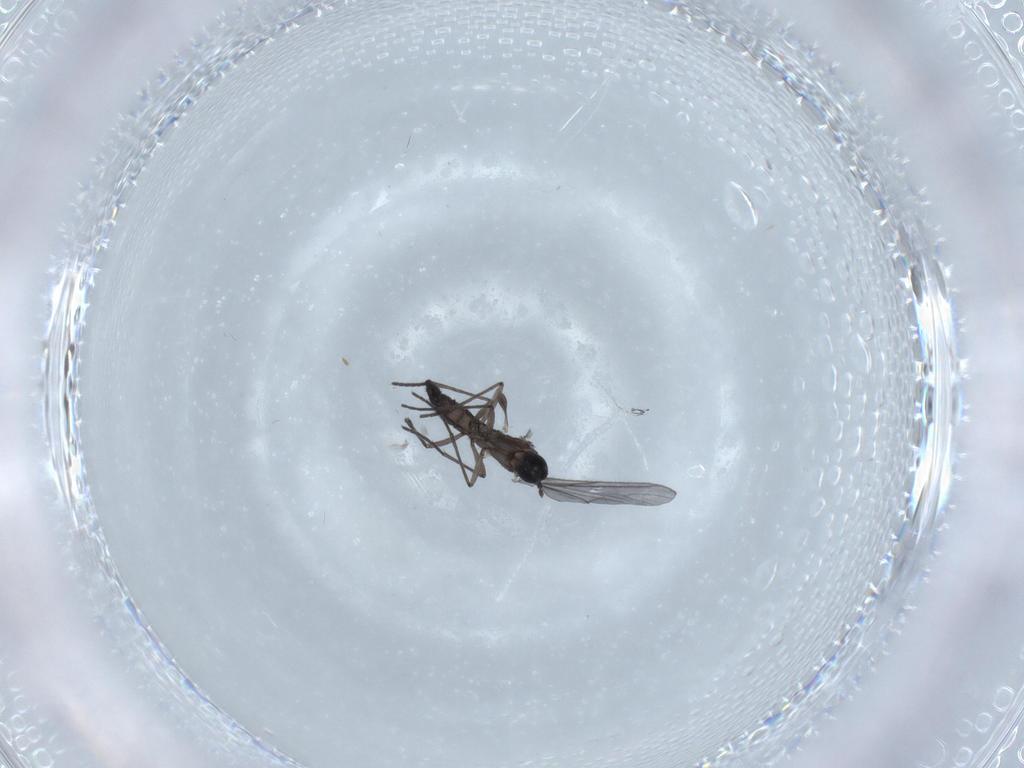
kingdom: Animalia
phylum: Arthropoda
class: Insecta
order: Diptera
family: Cecidomyiidae
